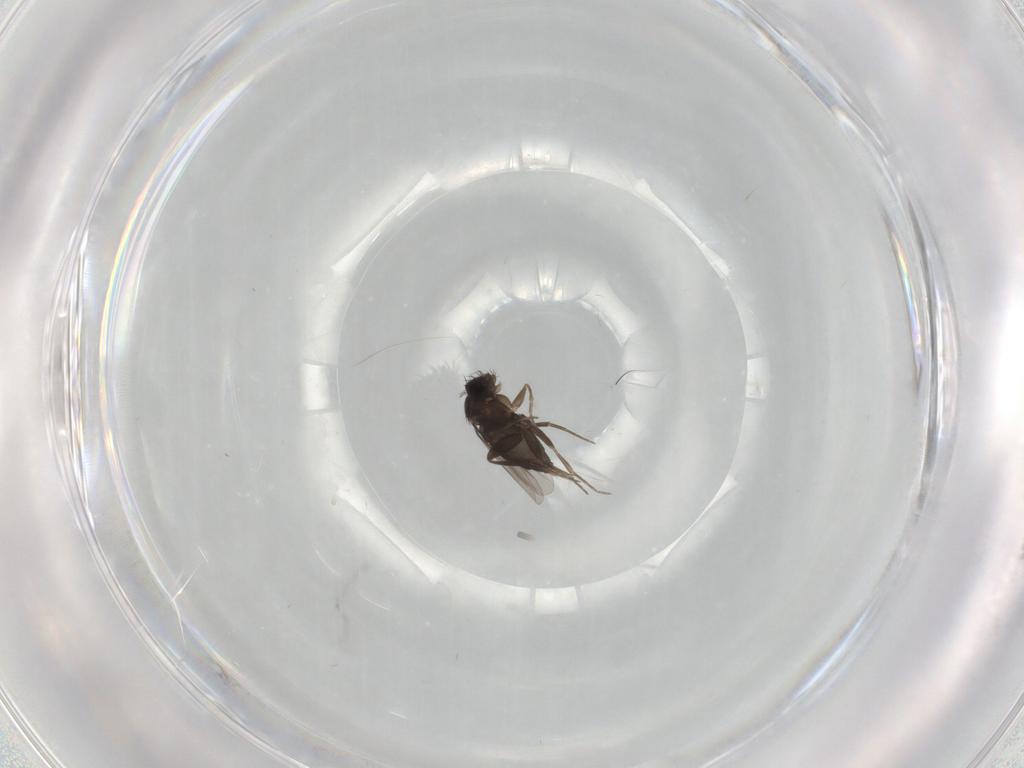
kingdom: Animalia
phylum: Arthropoda
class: Insecta
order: Diptera
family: Phoridae
